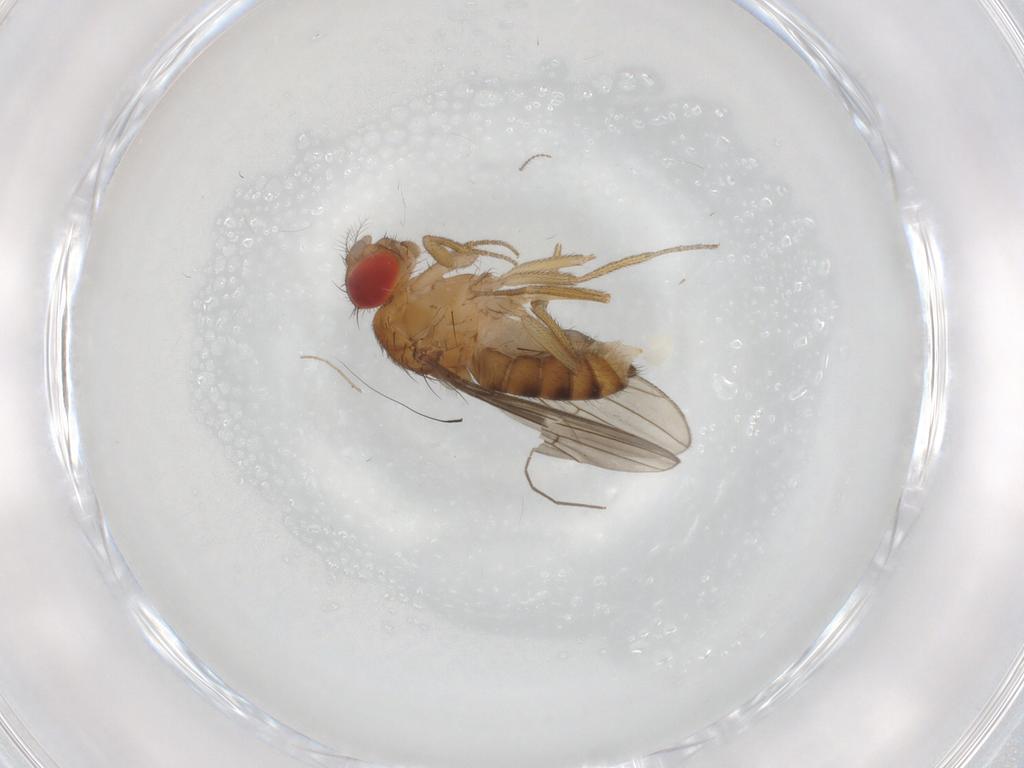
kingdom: Animalia
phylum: Arthropoda
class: Insecta
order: Diptera
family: Drosophilidae
